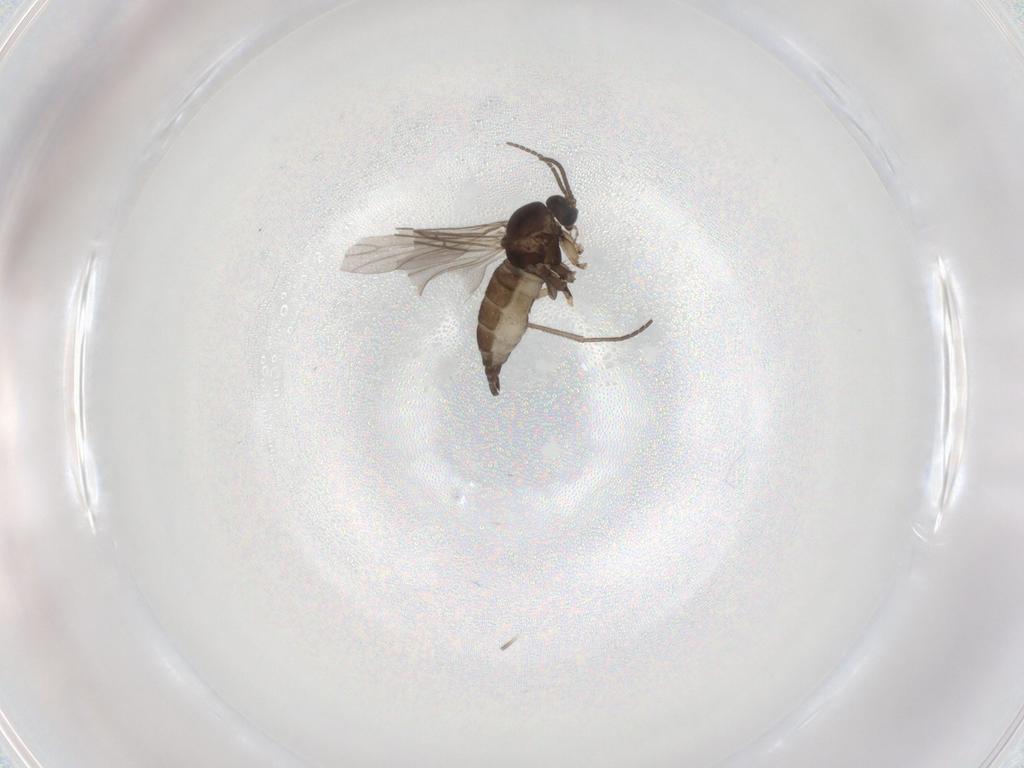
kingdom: Animalia
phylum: Arthropoda
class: Insecta
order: Diptera
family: Sciaridae
